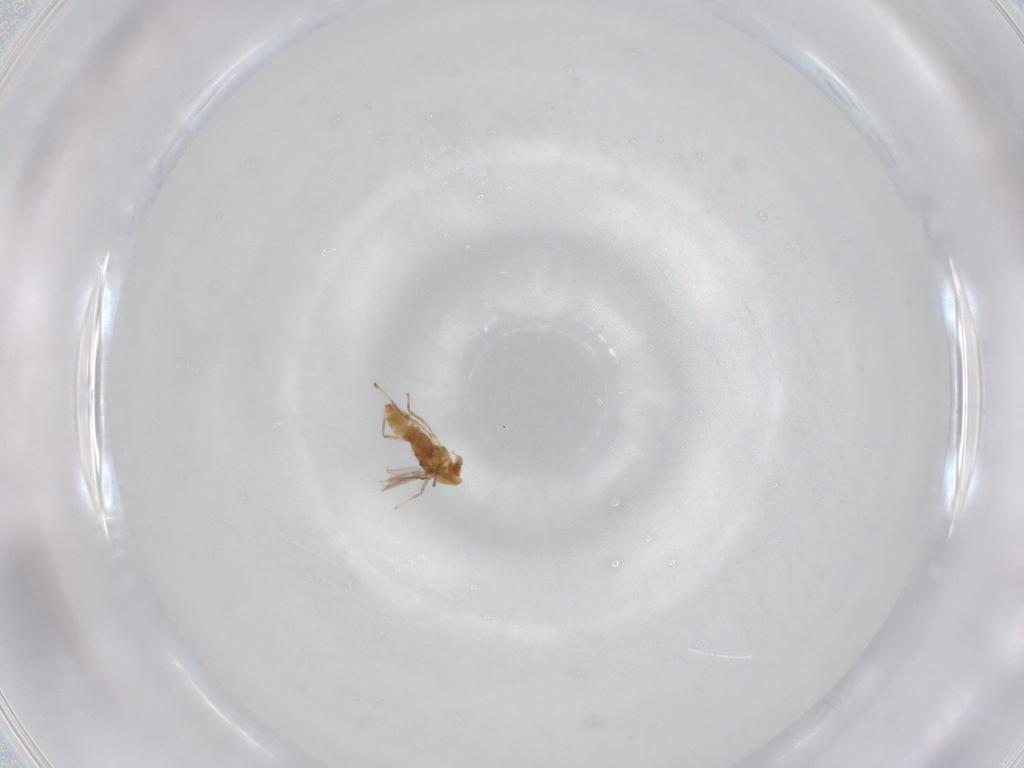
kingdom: Animalia
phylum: Arthropoda
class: Insecta
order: Diptera
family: Chironomidae
